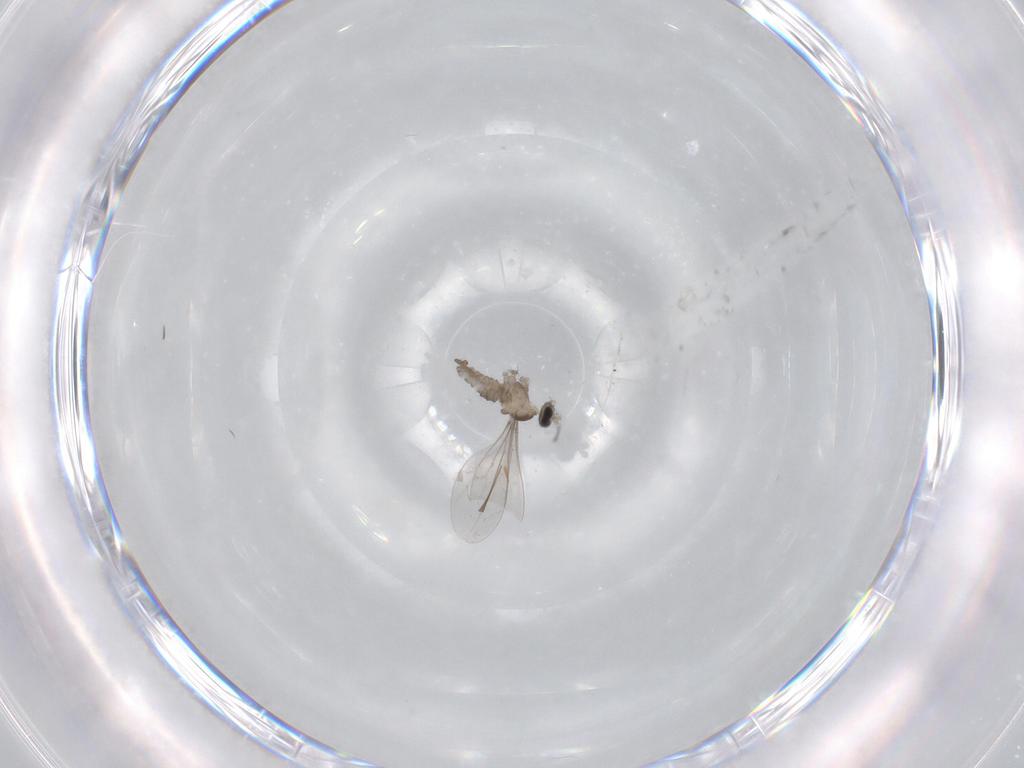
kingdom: Animalia
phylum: Arthropoda
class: Insecta
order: Diptera
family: Cecidomyiidae
